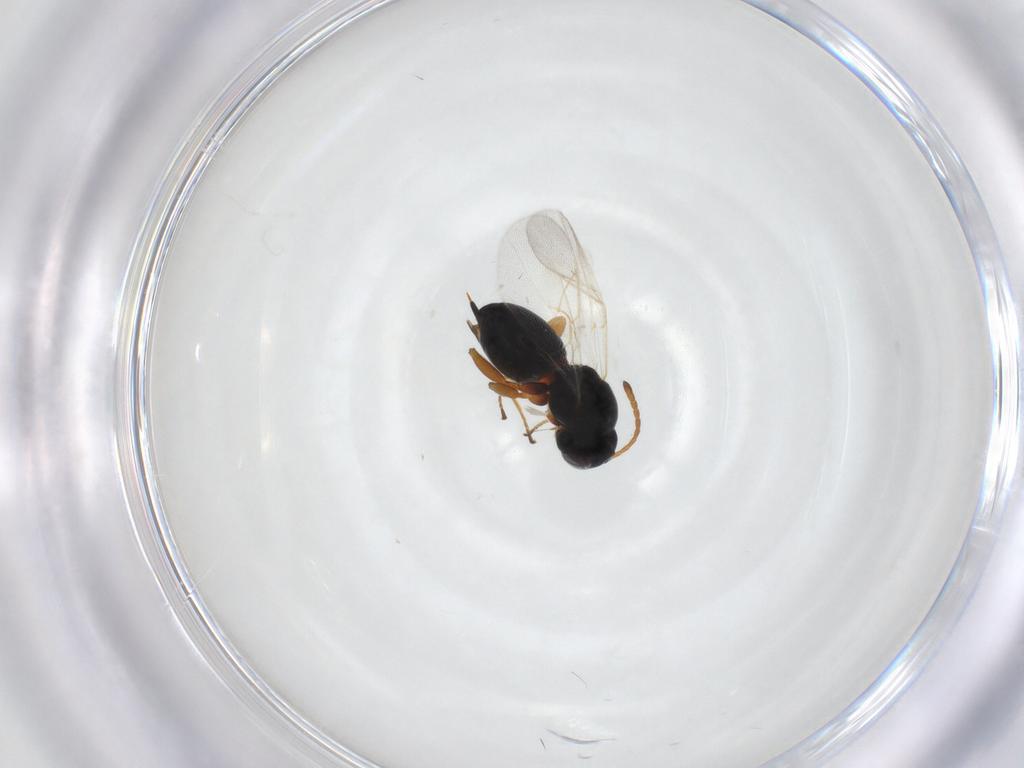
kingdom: Animalia
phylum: Arthropoda
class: Insecta
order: Hymenoptera
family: Cynipidae
